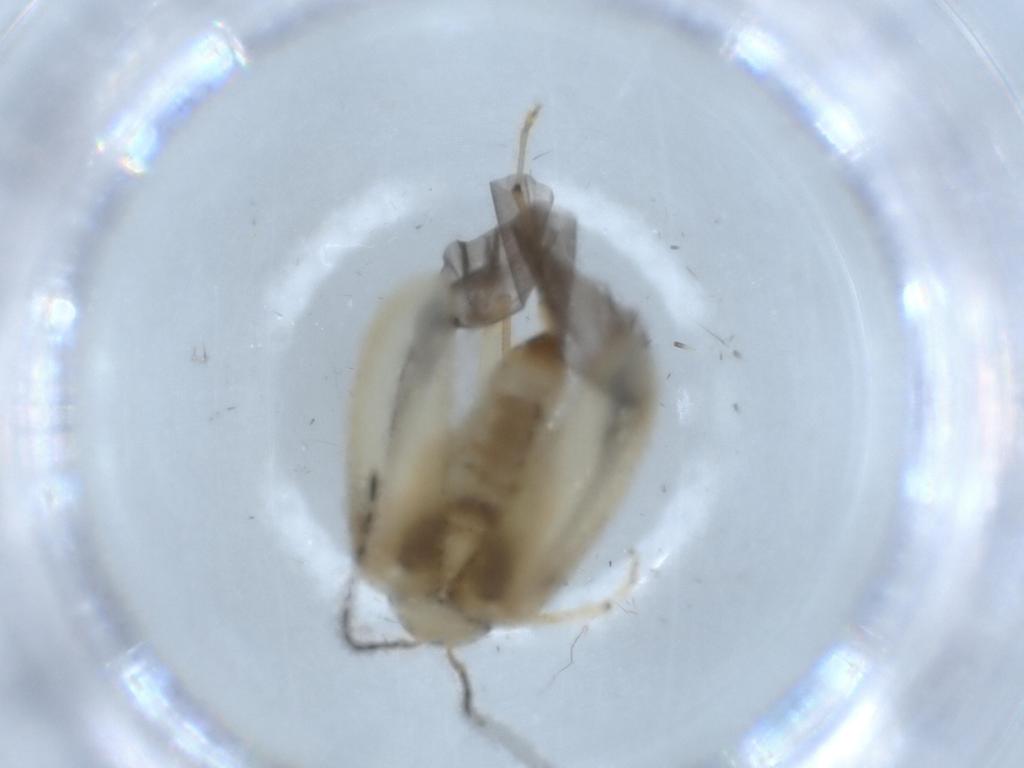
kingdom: Animalia
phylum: Arthropoda
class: Insecta
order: Coleoptera
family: Chrysomelidae
